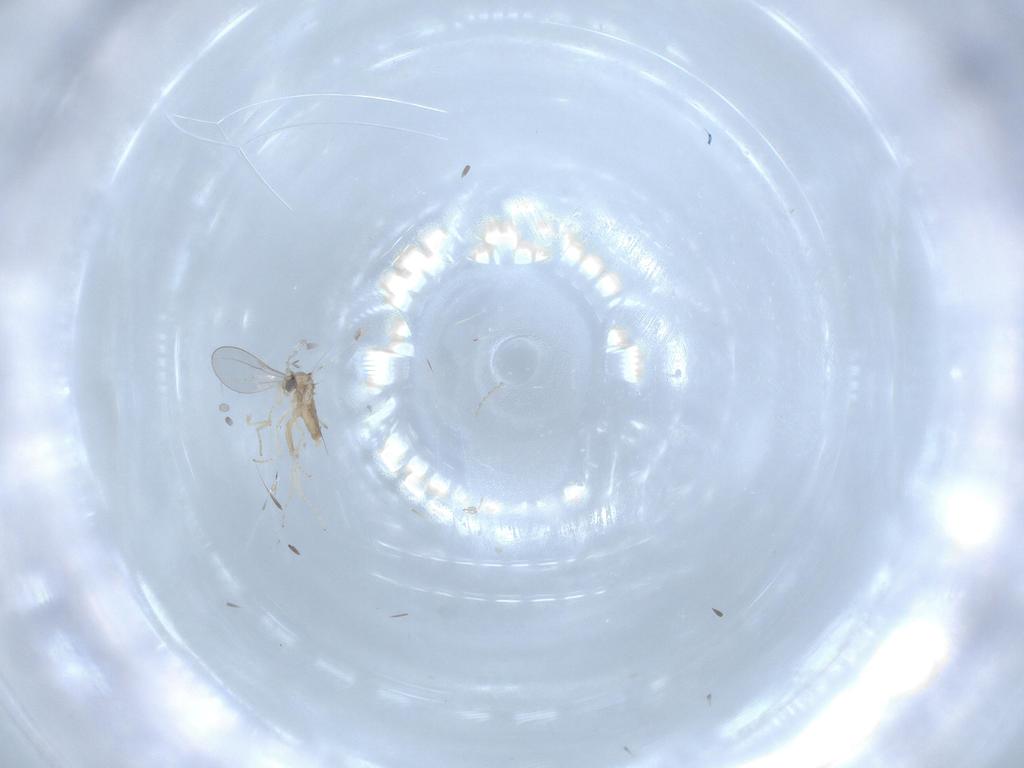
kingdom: Animalia
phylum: Arthropoda
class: Insecta
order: Diptera
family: Cecidomyiidae
